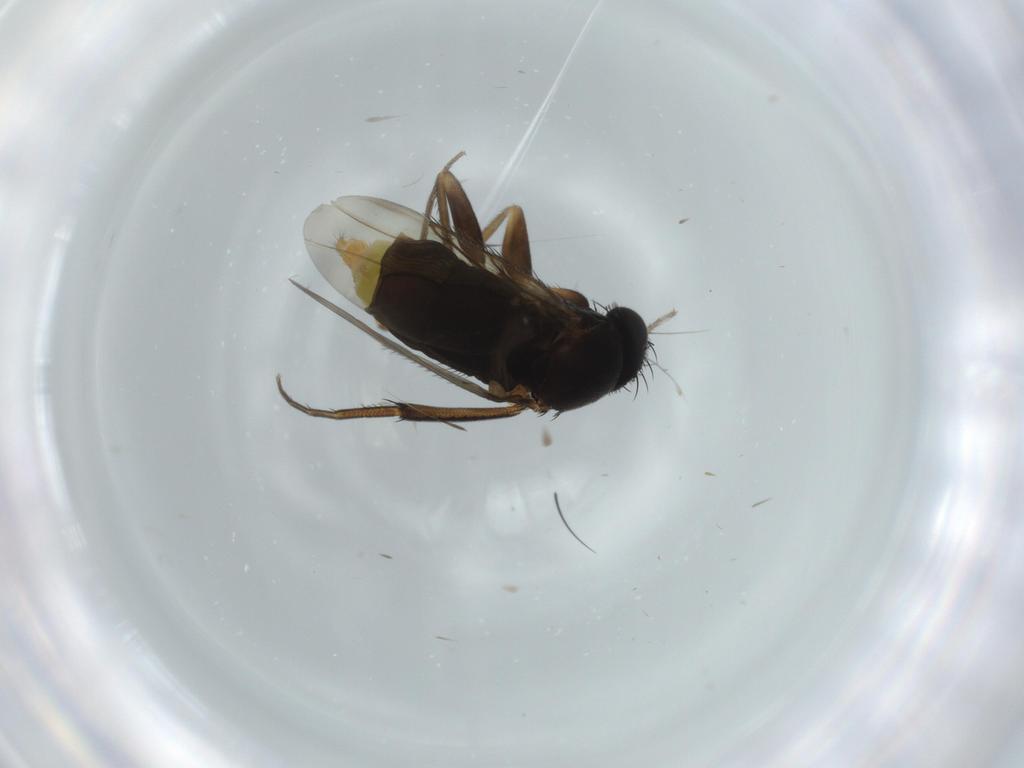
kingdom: Animalia
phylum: Arthropoda
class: Insecta
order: Diptera
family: Phoridae
